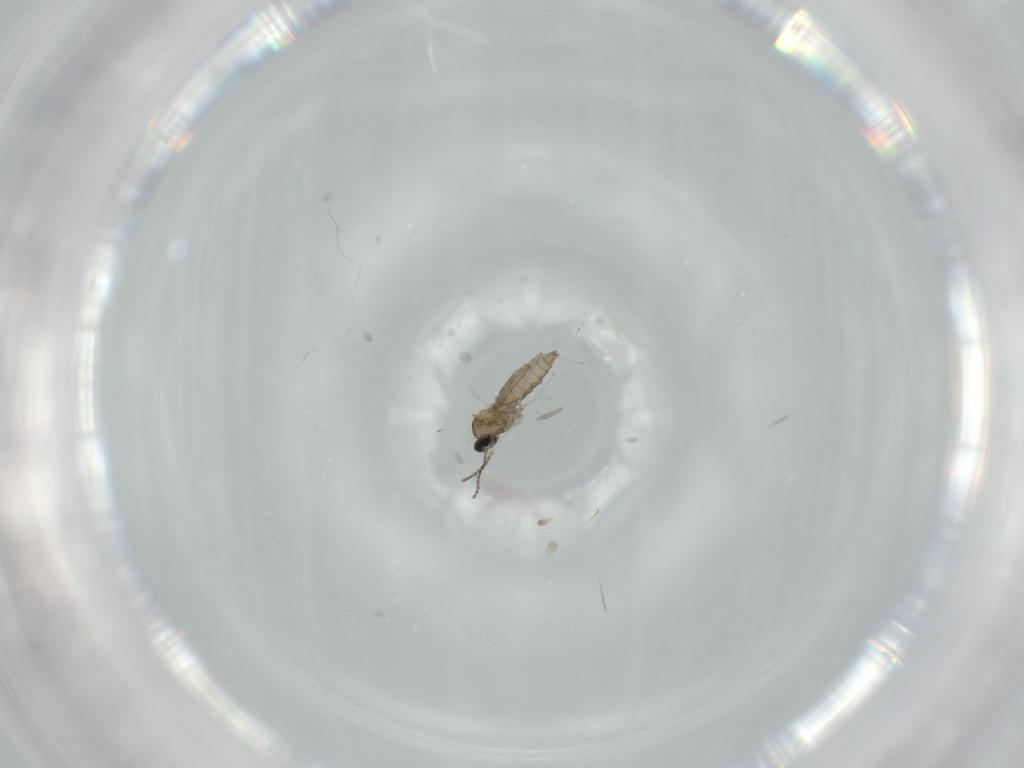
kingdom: Animalia
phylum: Arthropoda
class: Insecta
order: Diptera
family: Cecidomyiidae
